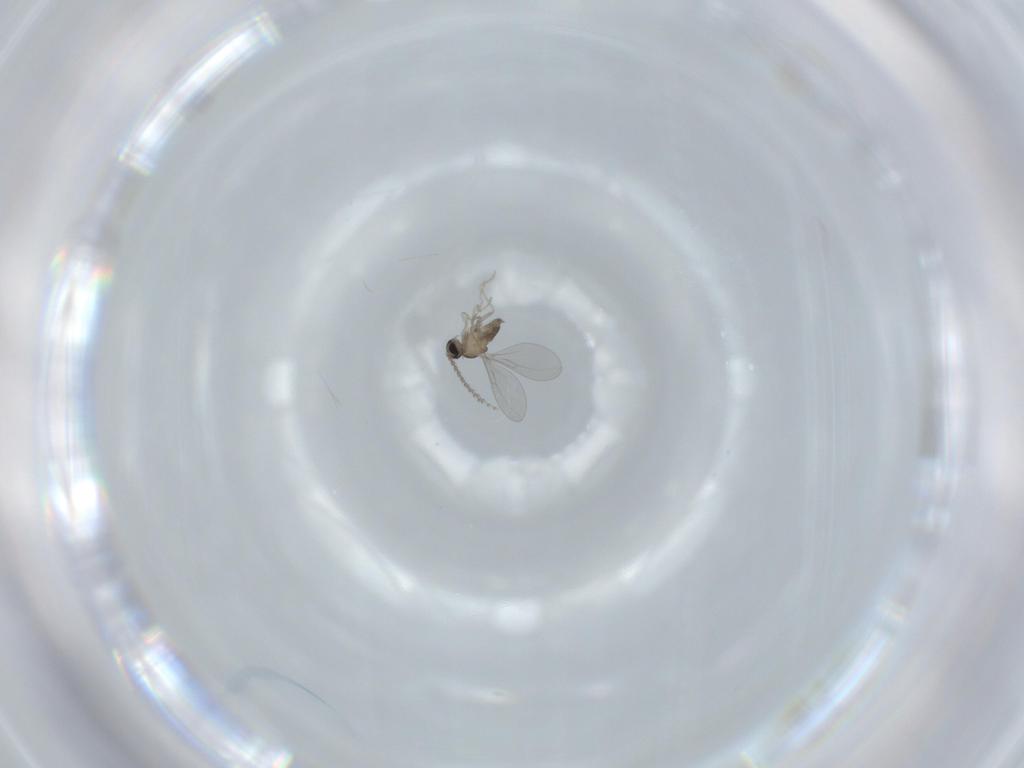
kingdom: Animalia
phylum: Arthropoda
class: Insecta
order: Diptera
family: Cecidomyiidae
